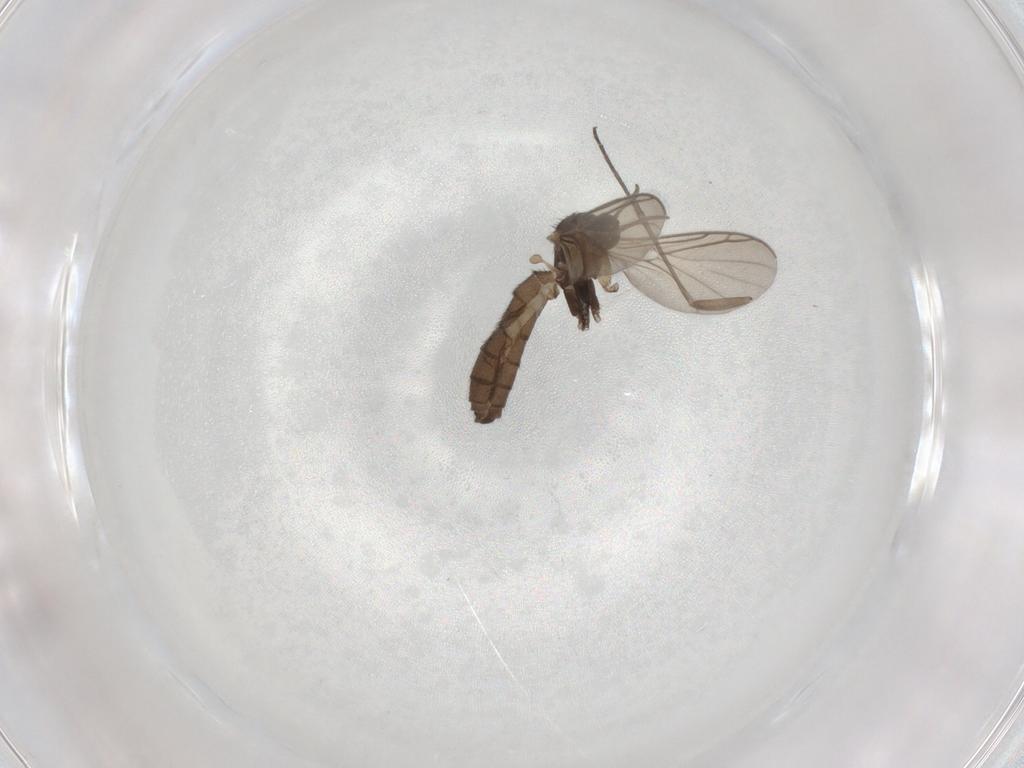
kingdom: Animalia
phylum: Arthropoda
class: Insecta
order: Diptera
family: Keroplatidae
